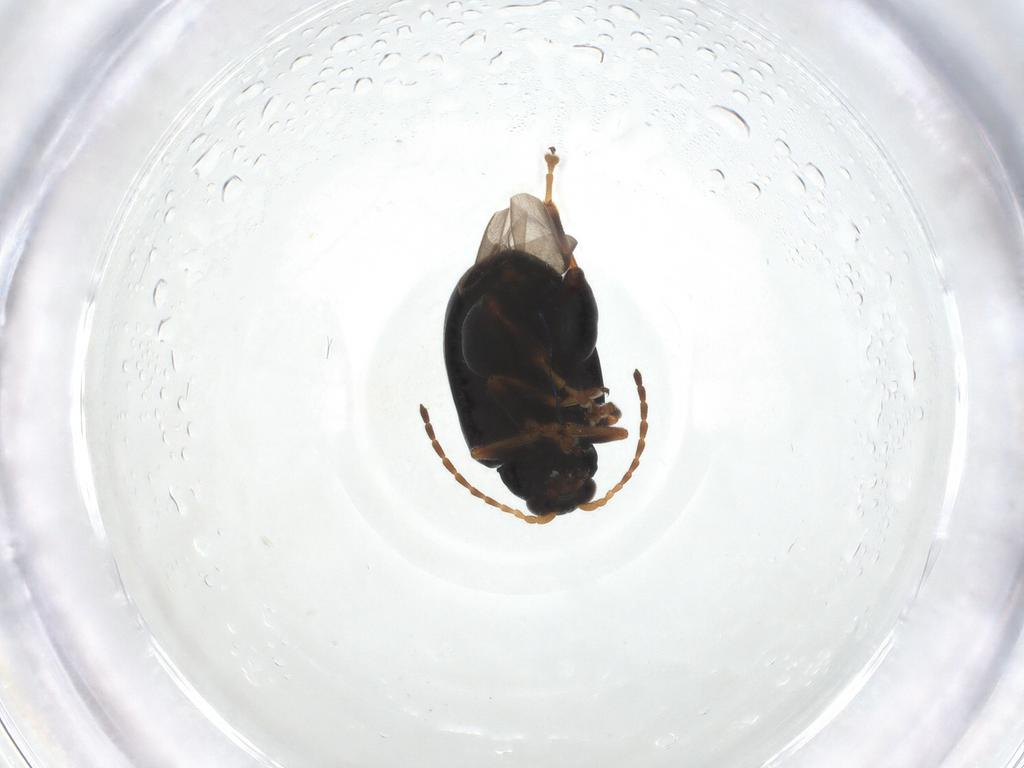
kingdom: Animalia
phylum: Arthropoda
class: Insecta
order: Coleoptera
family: Chrysomelidae
